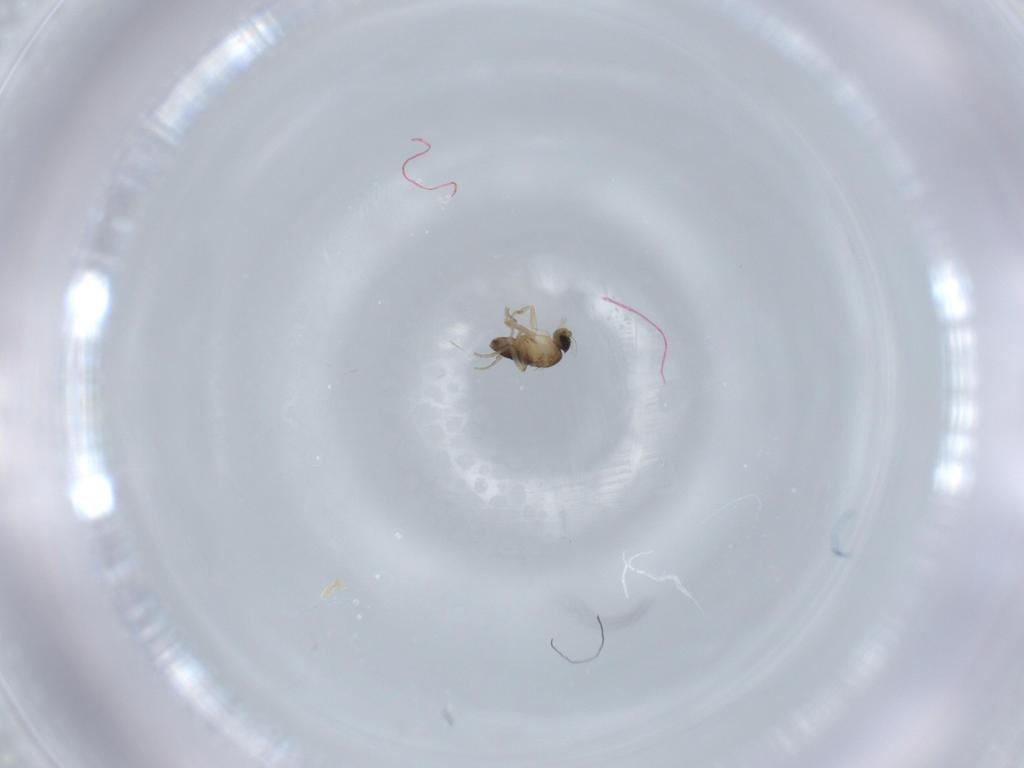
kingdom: Animalia
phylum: Arthropoda
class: Insecta
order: Diptera
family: Phoridae
